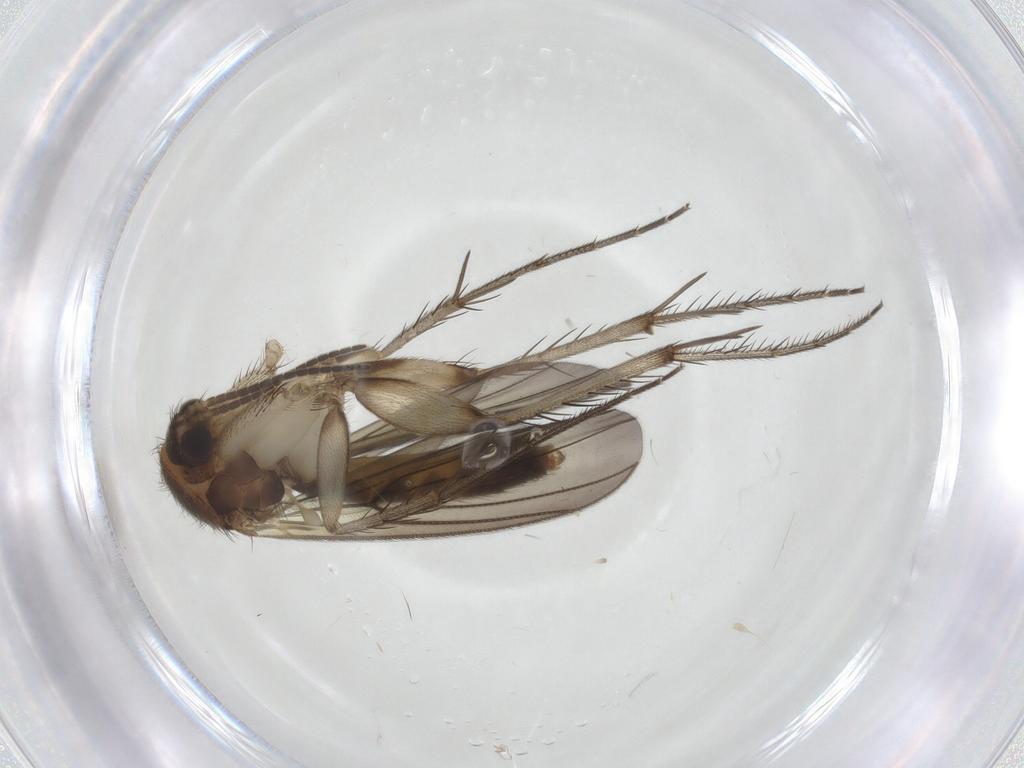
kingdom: Animalia
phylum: Arthropoda
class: Insecta
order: Diptera
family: Mycetophilidae
